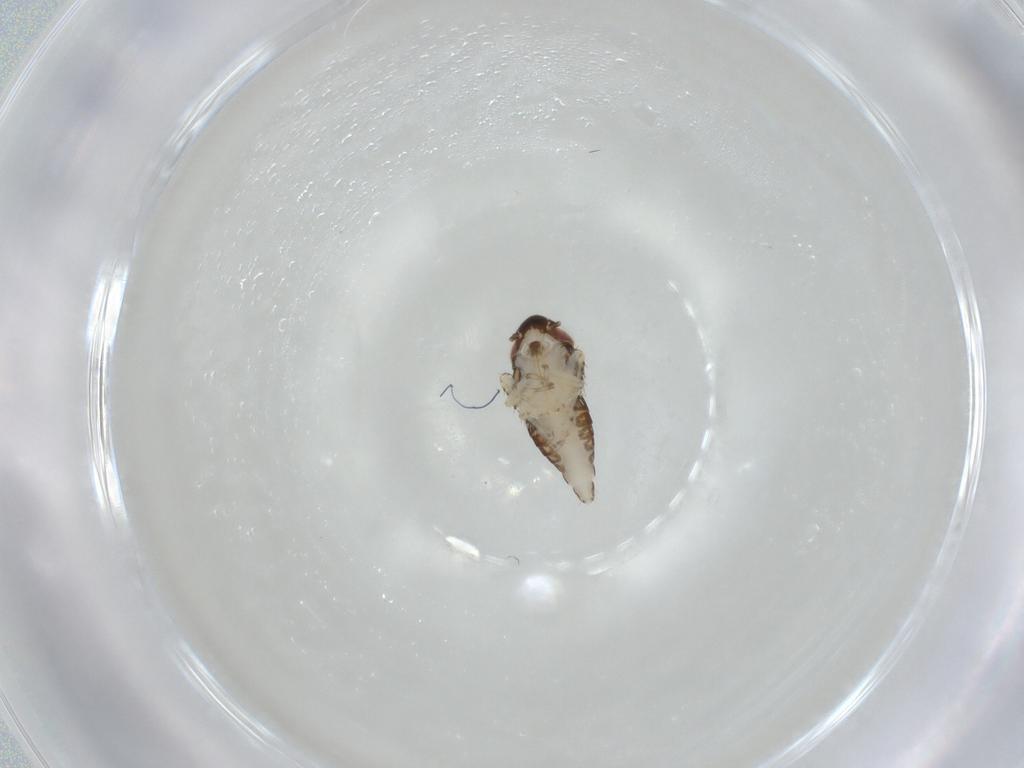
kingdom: Animalia
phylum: Arthropoda
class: Insecta
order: Hemiptera
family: Cicadellidae
